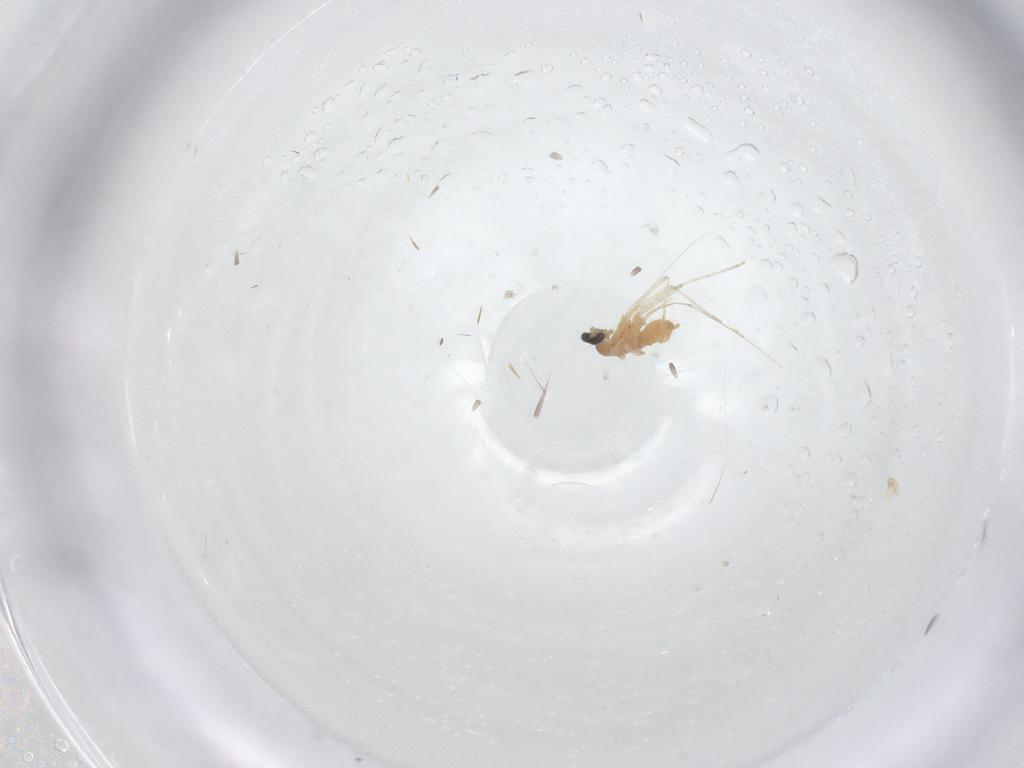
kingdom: Animalia
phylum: Arthropoda
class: Insecta
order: Diptera
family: Cecidomyiidae
